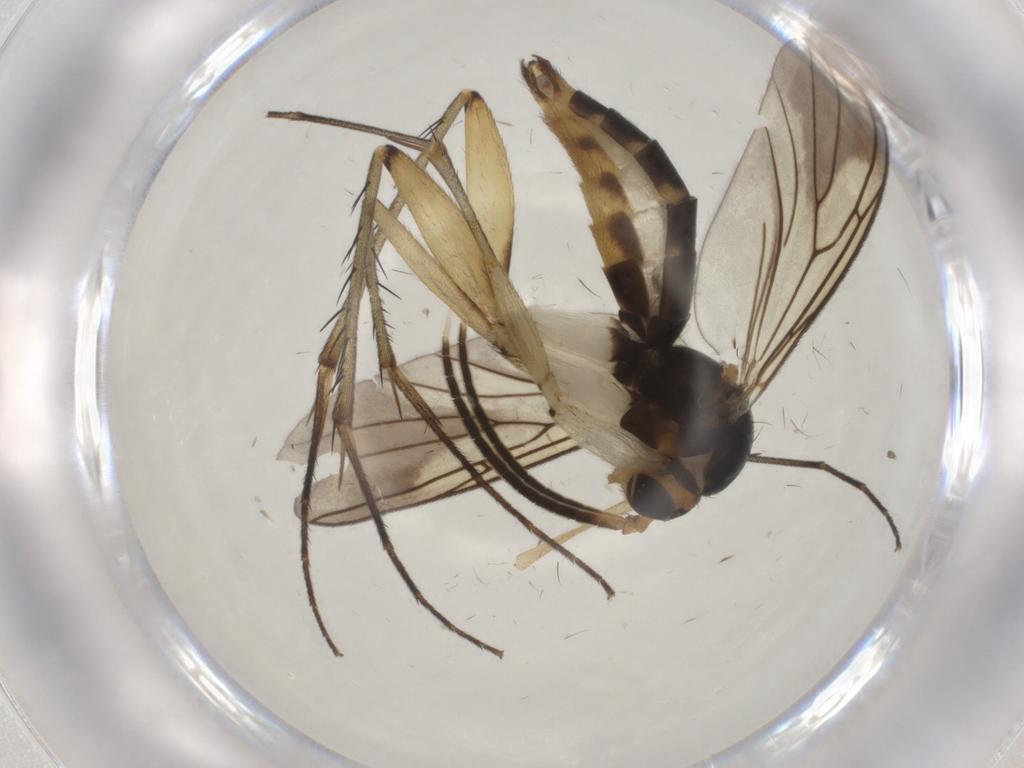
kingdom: Animalia
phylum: Arthropoda
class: Insecta
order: Diptera
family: Mycetophilidae
